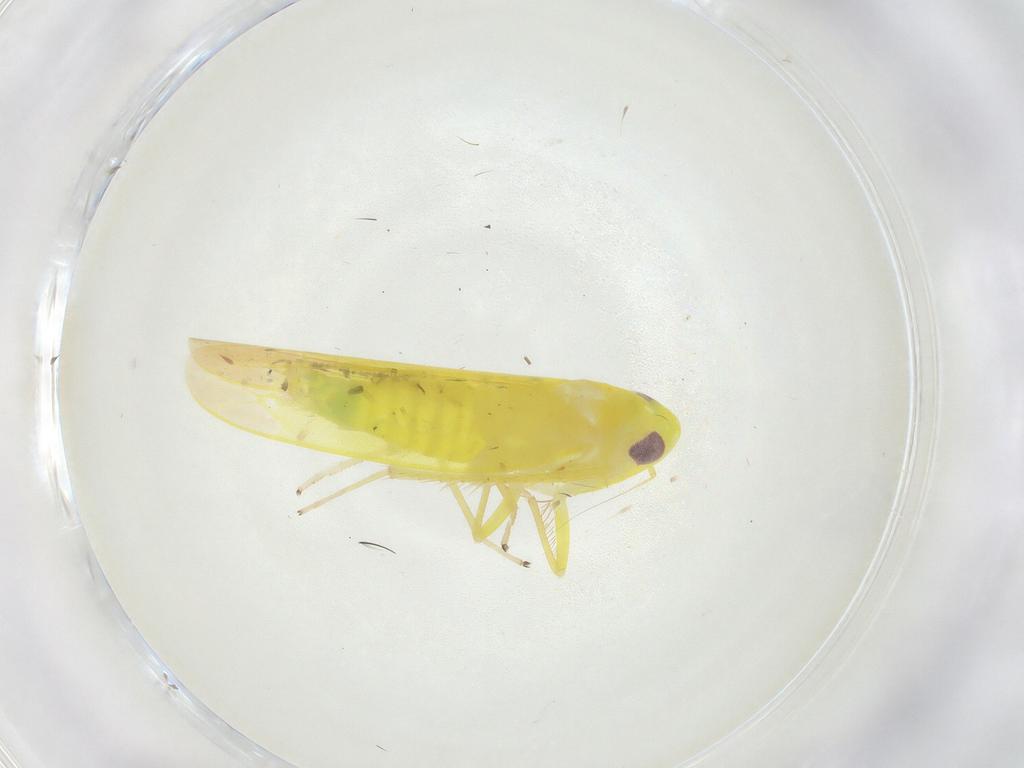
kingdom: Animalia
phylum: Arthropoda
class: Insecta
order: Hemiptera
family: Cicadellidae
